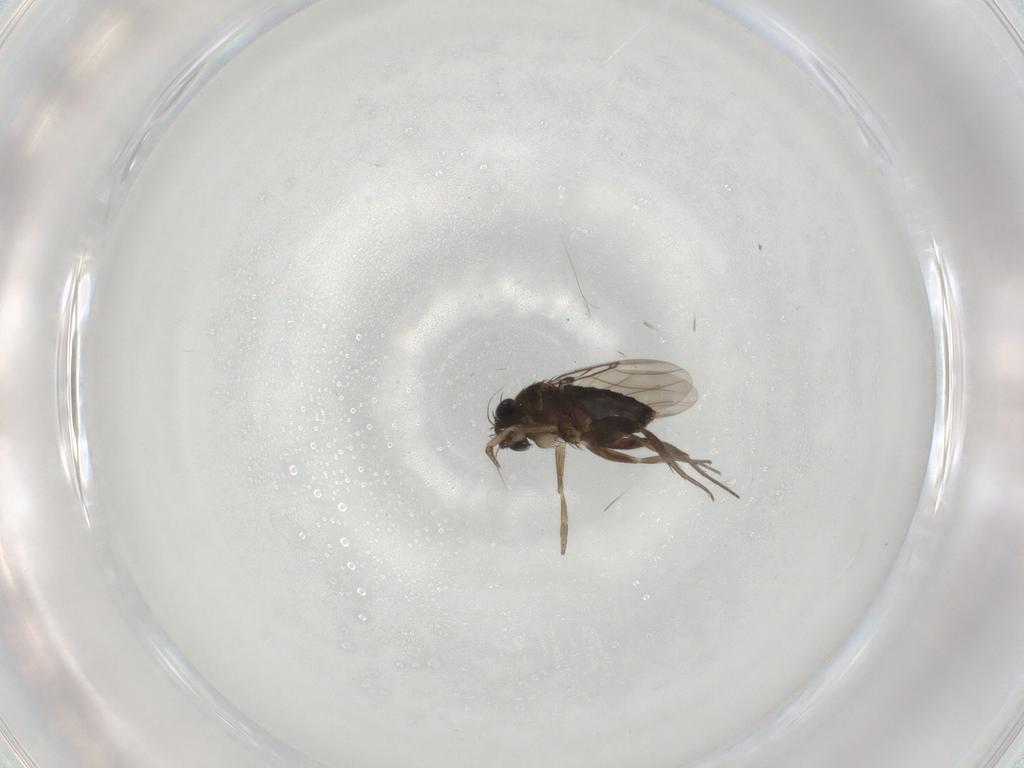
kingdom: Animalia
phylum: Arthropoda
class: Insecta
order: Diptera
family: Phoridae
